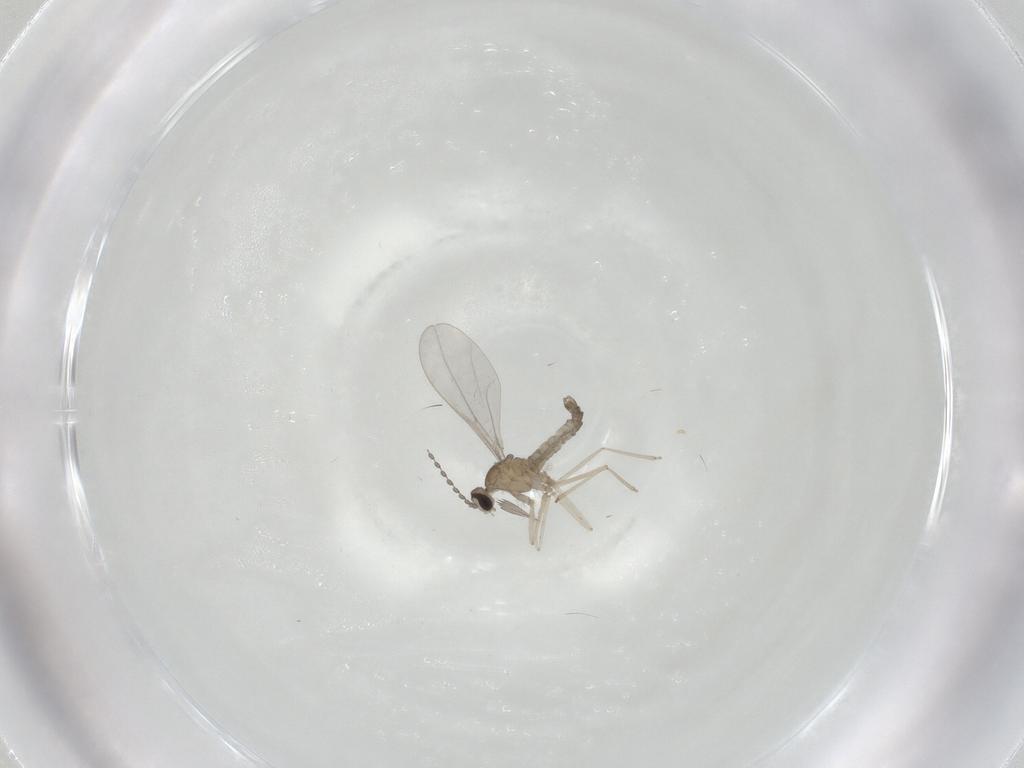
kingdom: Animalia
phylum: Arthropoda
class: Insecta
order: Diptera
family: Cecidomyiidae
